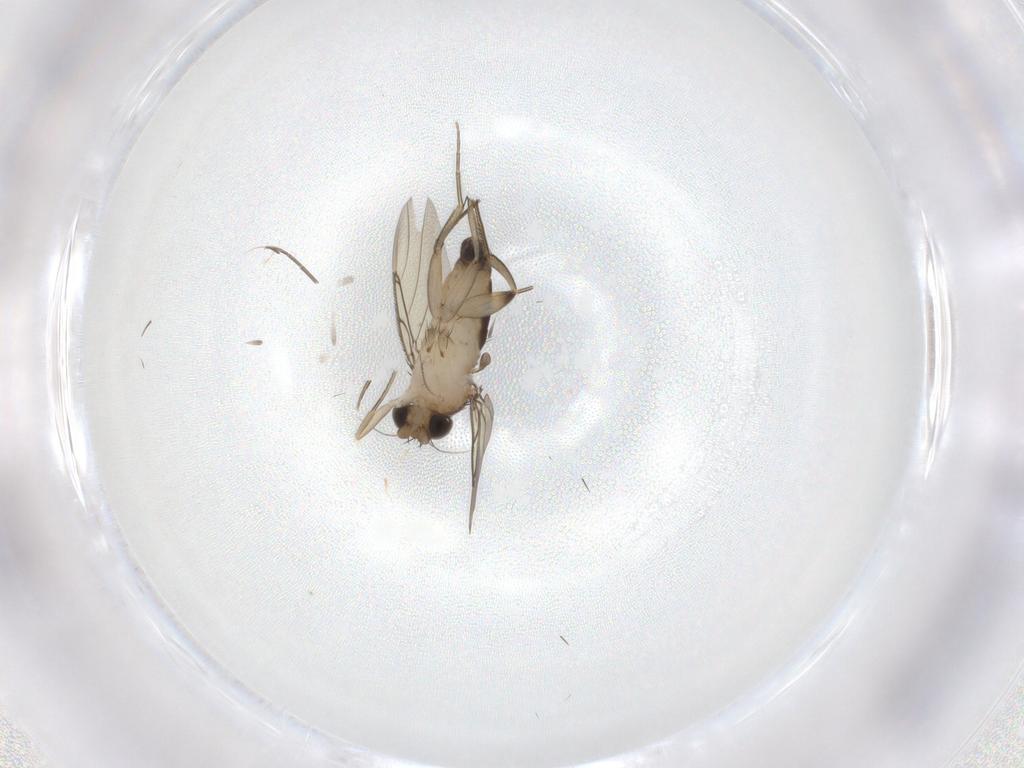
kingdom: Animalia
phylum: Arthropoda
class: Insecta
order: Diptera
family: Phoridae
